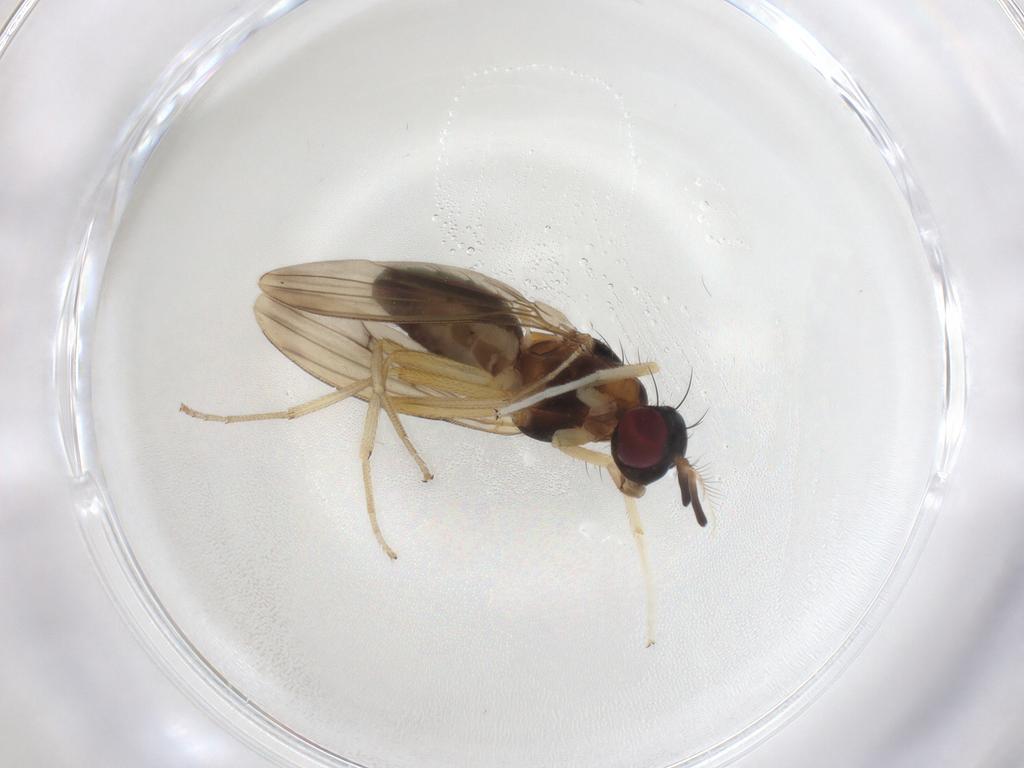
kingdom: Animalia
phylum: Arthropoda
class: Insecta
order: Diptera
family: Lauxaniidae
